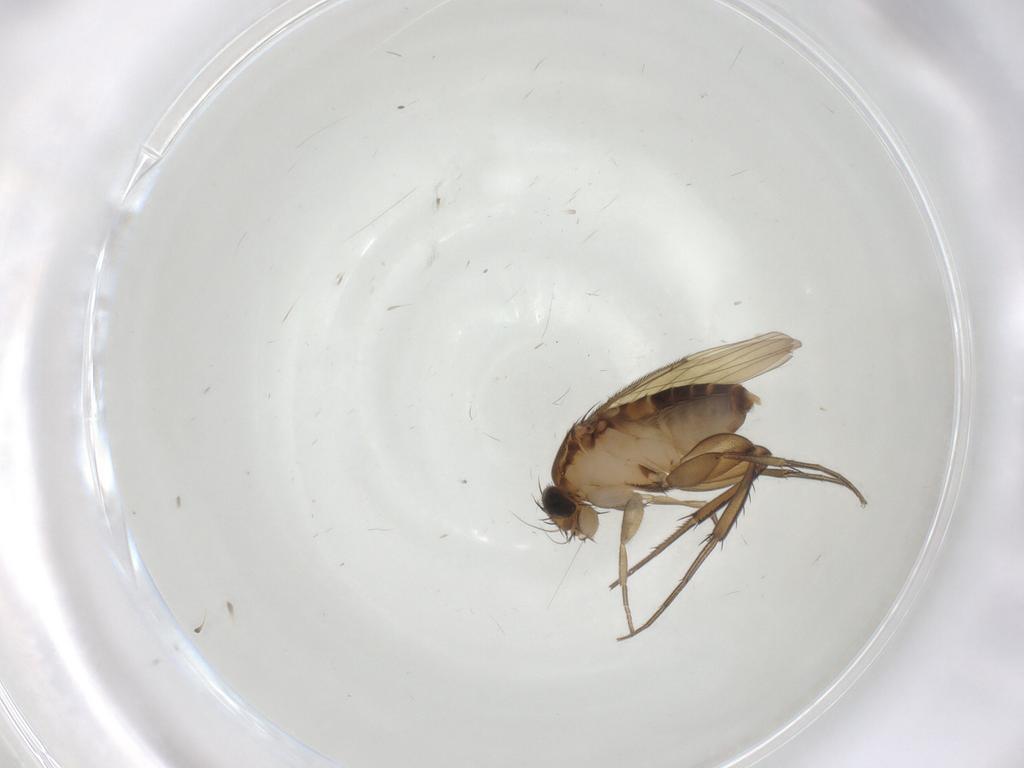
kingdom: Animalia
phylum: Arthropoda
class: Insecta
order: Diptera
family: Phoridae
